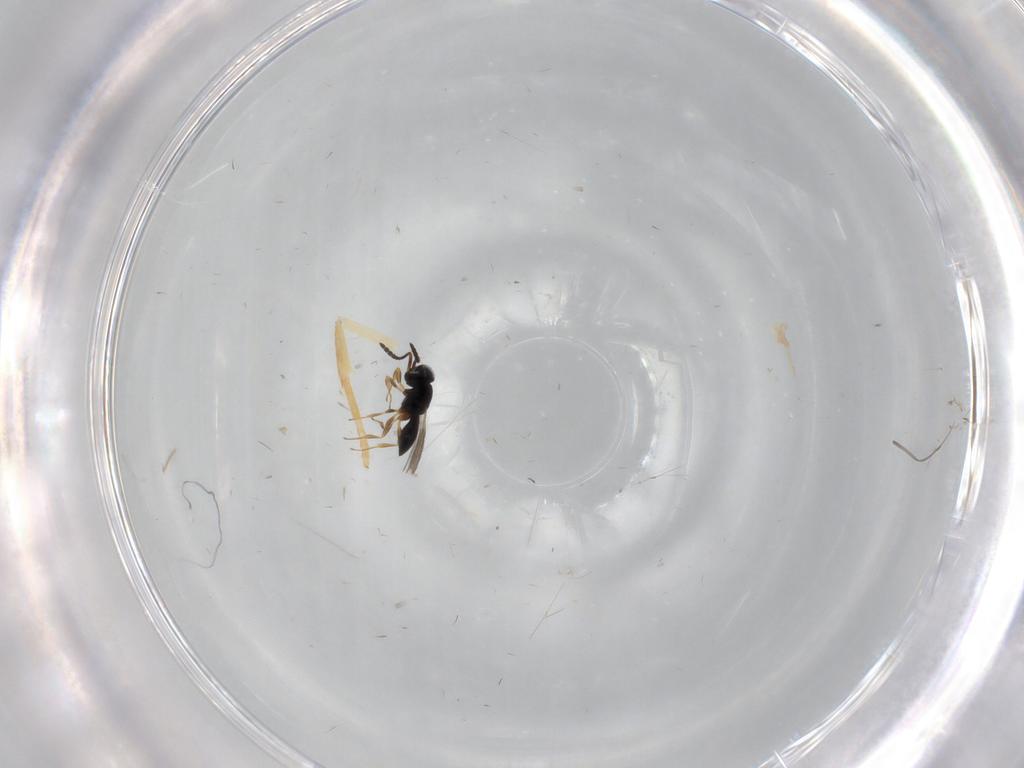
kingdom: Animalia
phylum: Arthropoda
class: Insecta
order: Hymenoptera
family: Scelionidae
